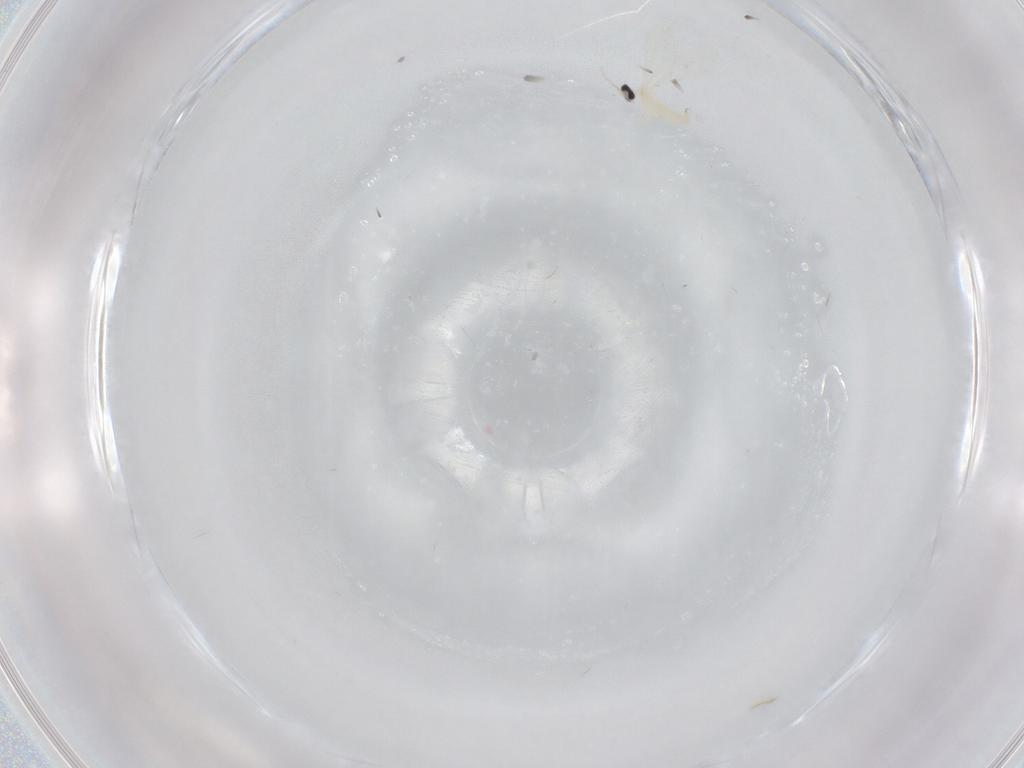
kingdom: Animalia
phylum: Arthropoda
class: Insecta
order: Diptera
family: Cecidomyiidae
